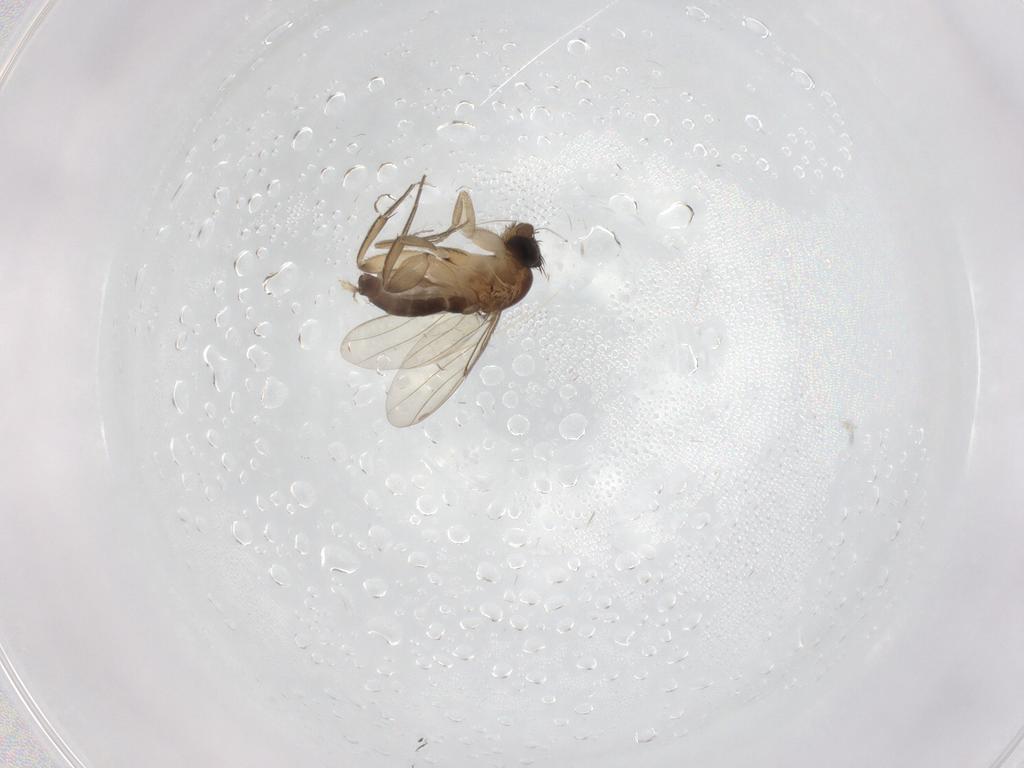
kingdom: Animalia
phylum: Arthropoda
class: Insecta
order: Diptera
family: Phoridae
